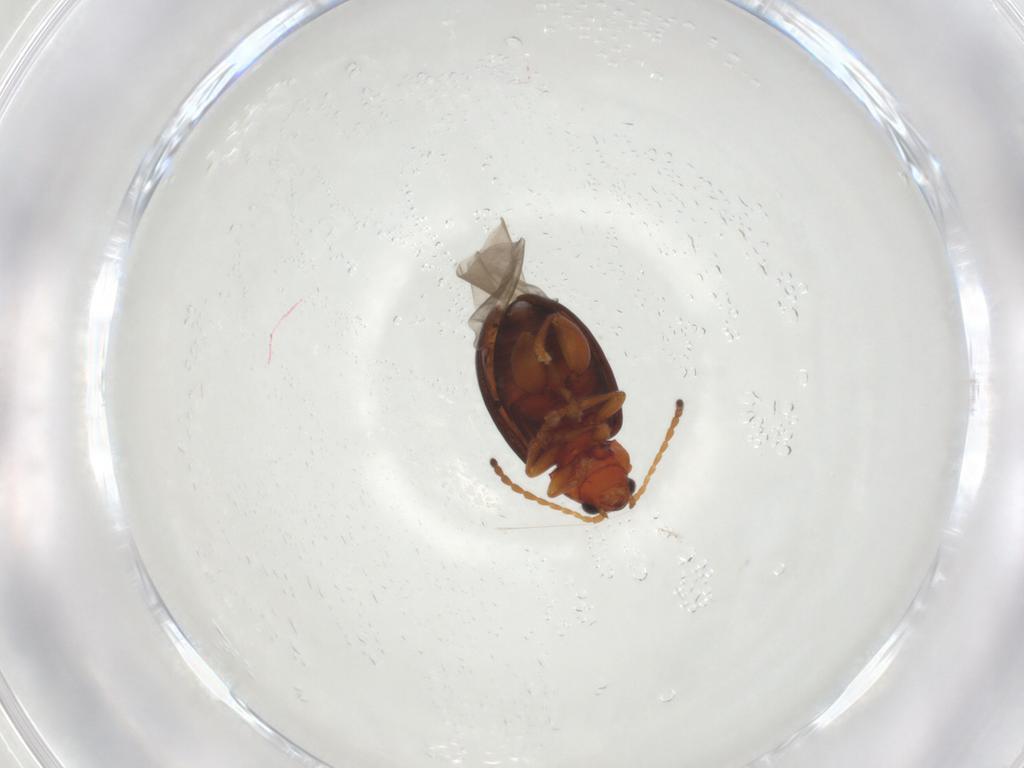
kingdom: Animalia
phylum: Arthropoda
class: Insecta
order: Coleoptera
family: Chrysomelidae
